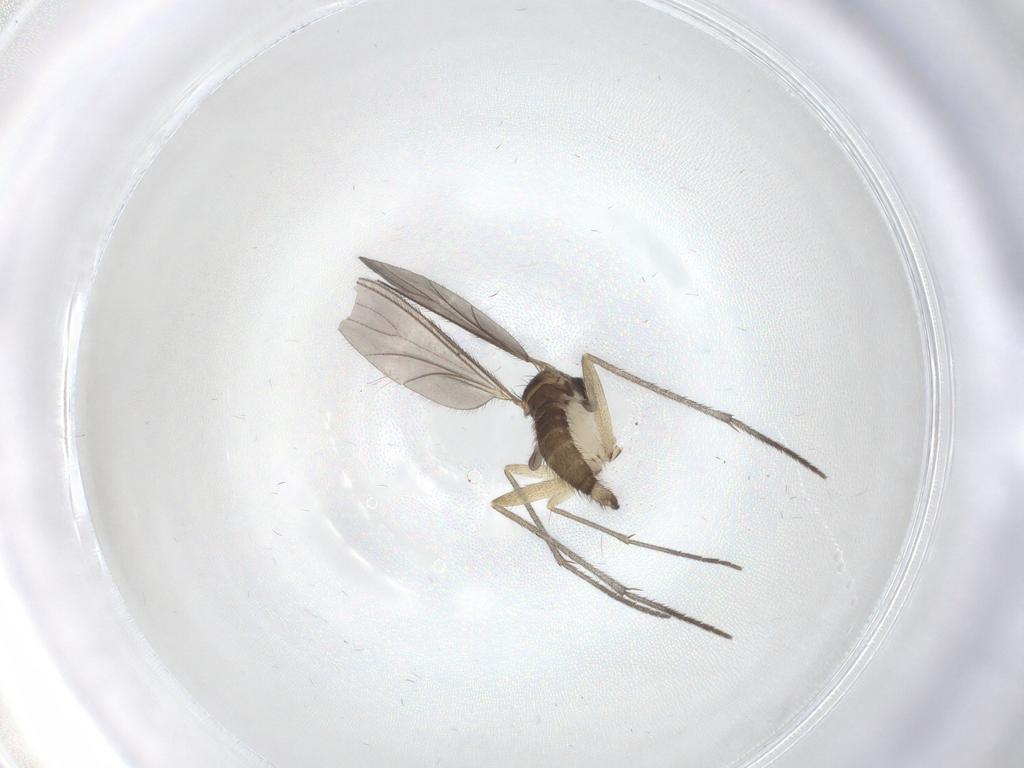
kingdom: Animalia
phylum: Arthropoda
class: Insecta
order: Diptera
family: Sciaridae
